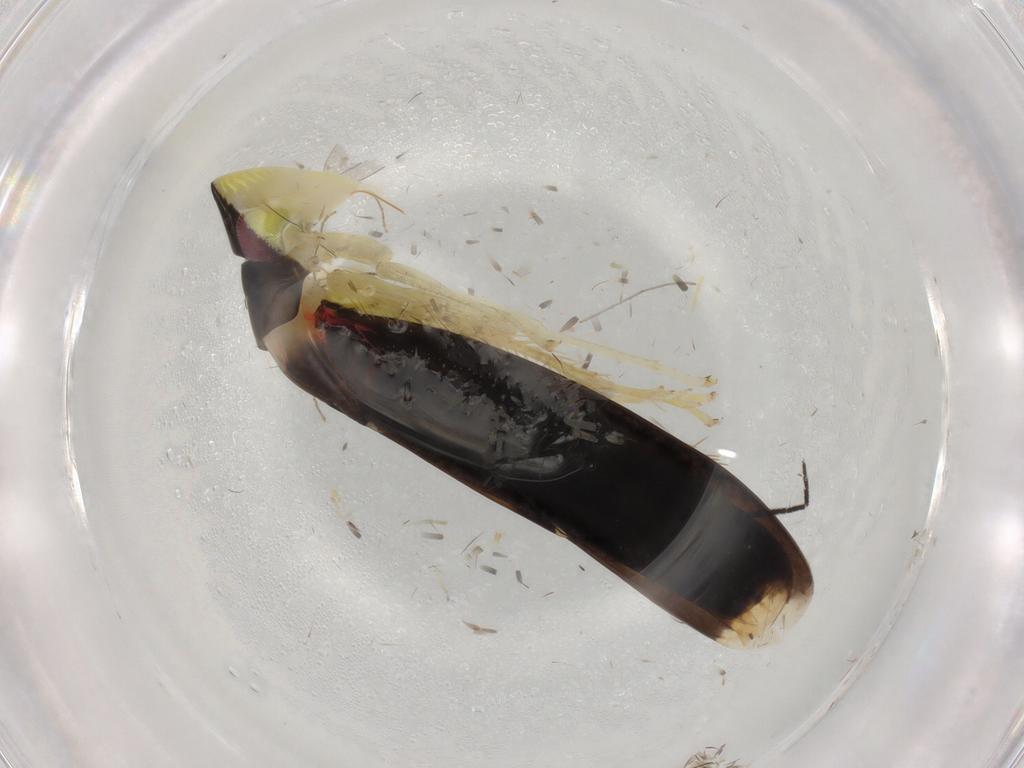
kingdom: Animalia
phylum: Arthropoda
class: Insecta
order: Hemiptera
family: Cicadellidae
